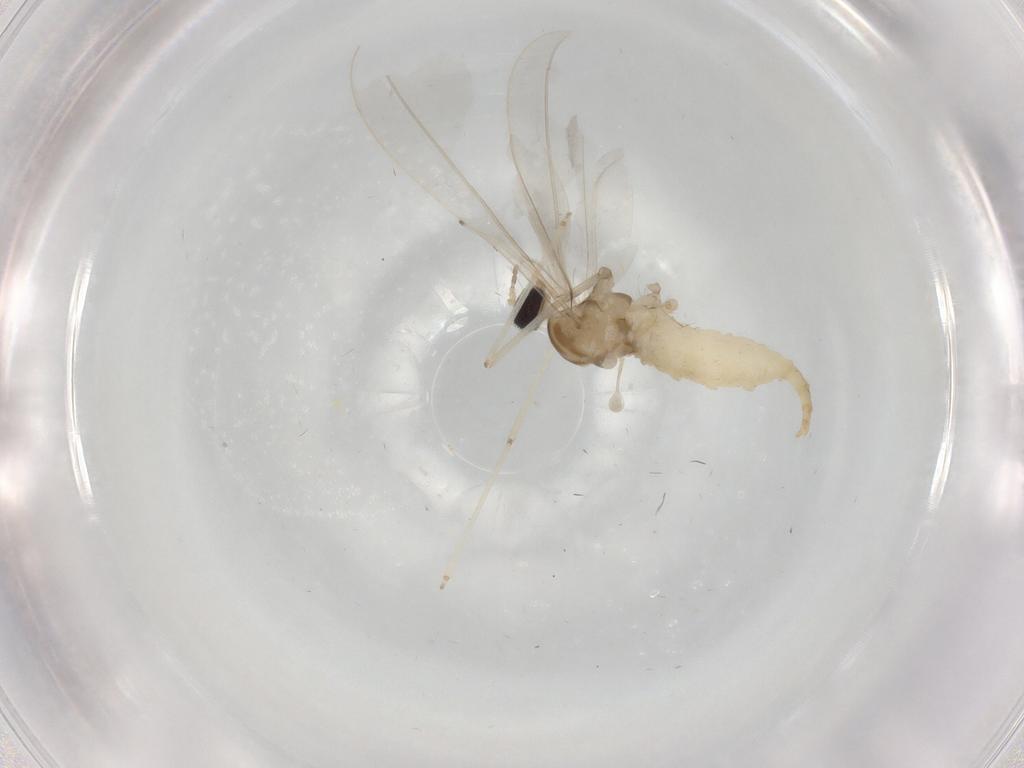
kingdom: Animalia
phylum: Arthropoda
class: Insecta
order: Diptera
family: Cecidomyiidae
